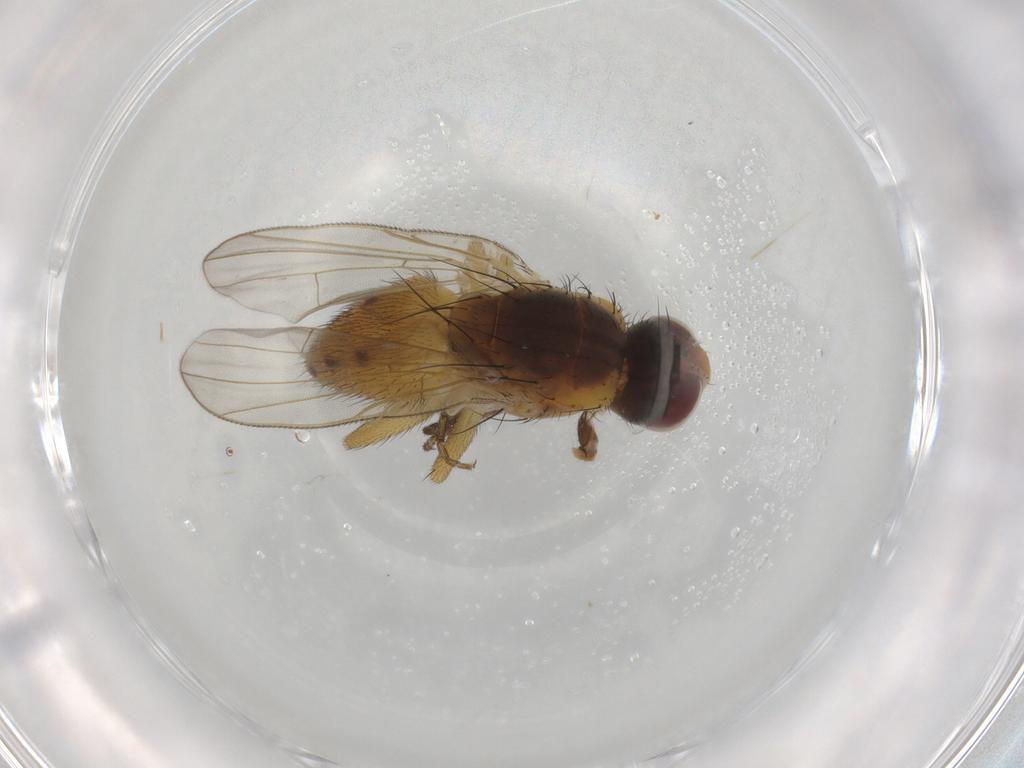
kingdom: Animalia
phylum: Arthropoda
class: Insecta
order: Diptera
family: Muscidae
